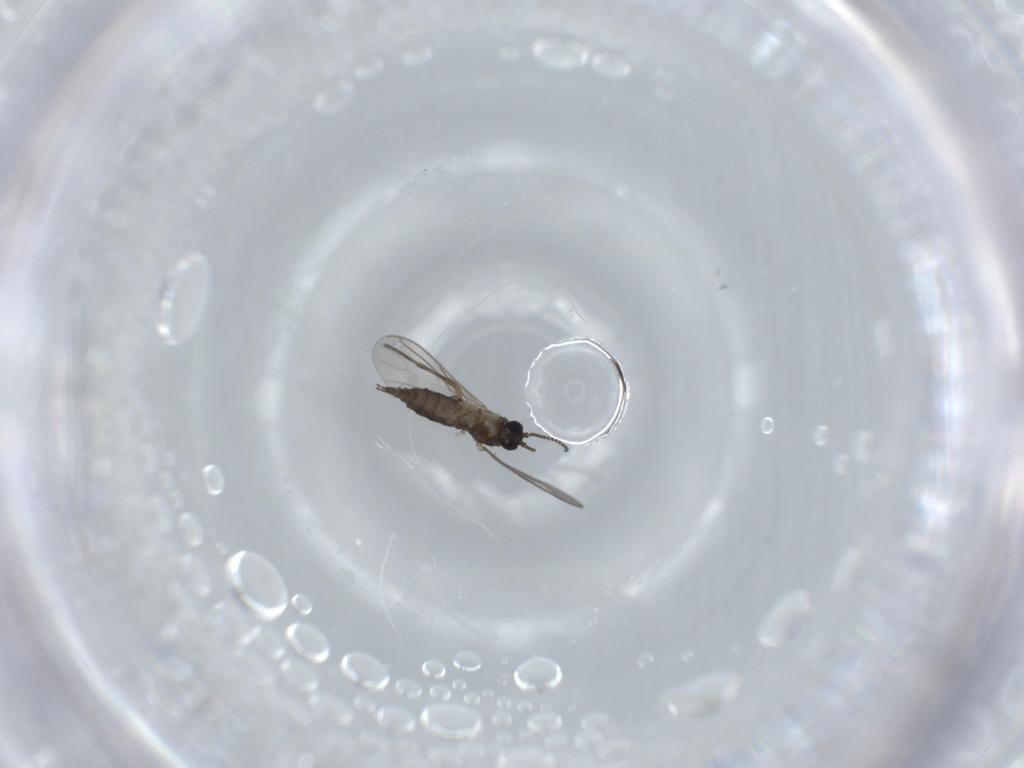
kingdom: Animalia
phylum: Arthropoda
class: Insecta
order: Diptera
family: Sciaridae
